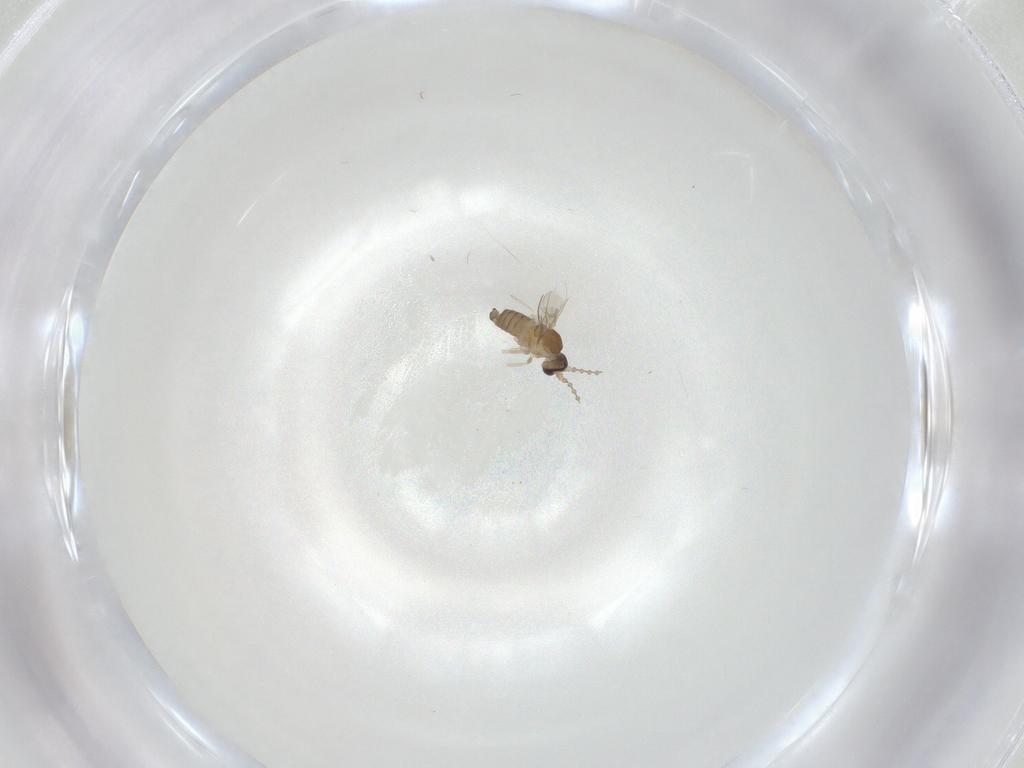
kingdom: Animalia
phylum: Arthropoda
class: Insecta
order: Diptera
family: Cecidomyiidae
